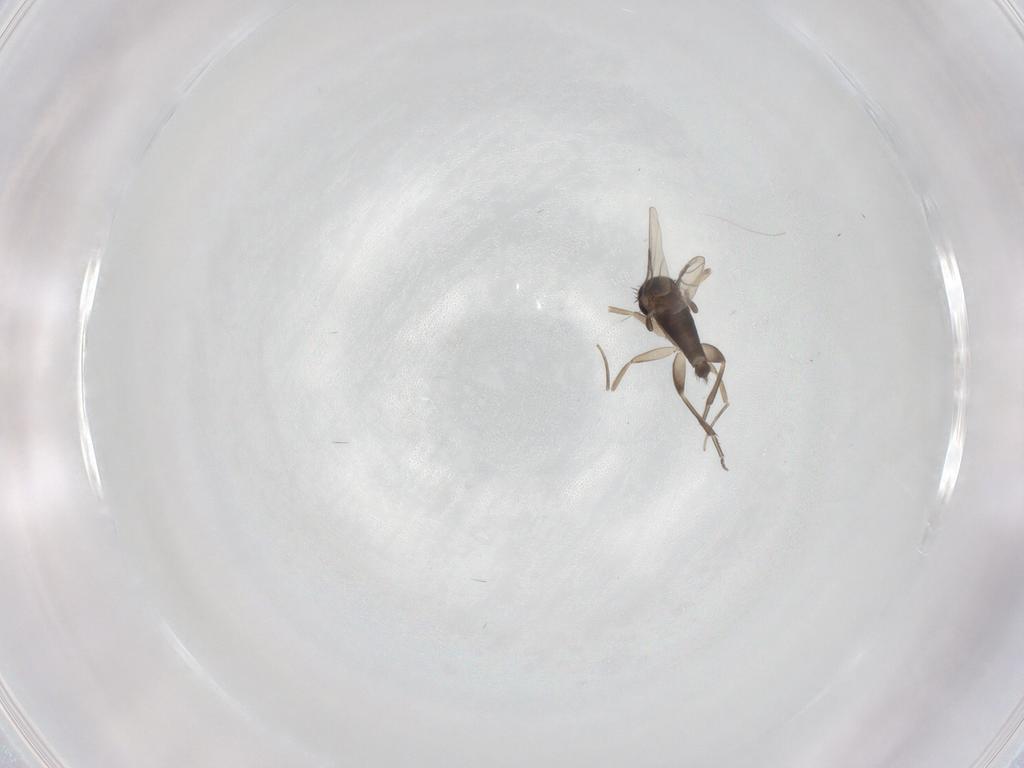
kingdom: Animalia
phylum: Arthropoda
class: Insecta
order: Diptera
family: Phoridae
